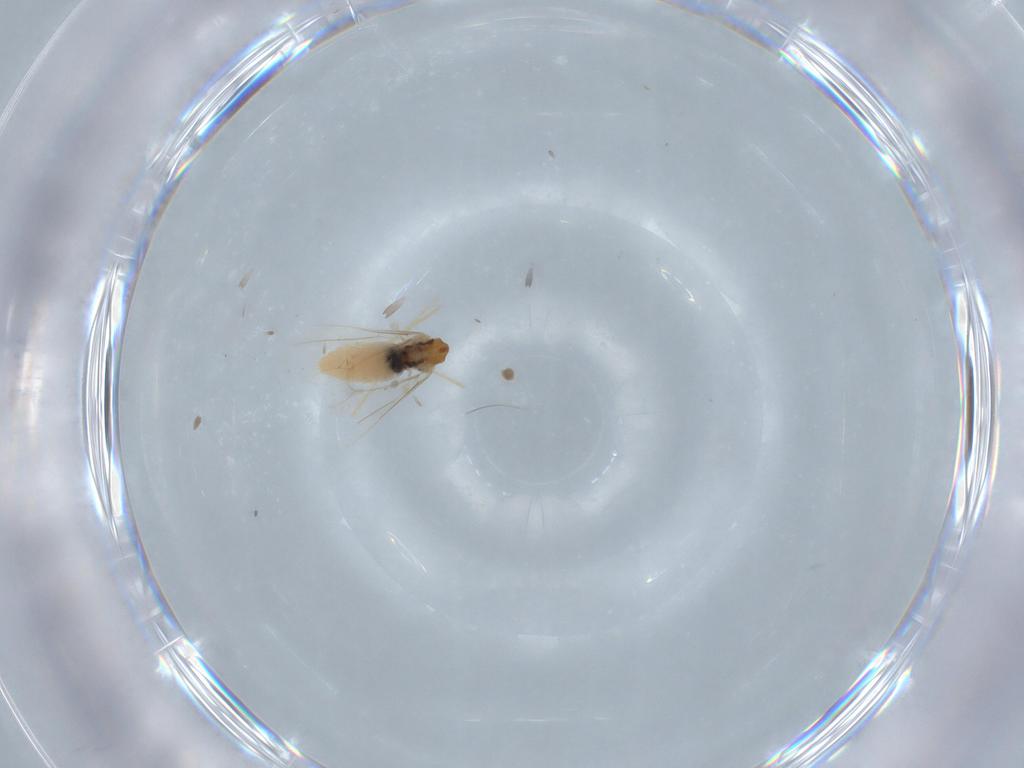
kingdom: Animalia
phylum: Arthropoda
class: Insecta
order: Diptera
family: Cecidomyiidae
